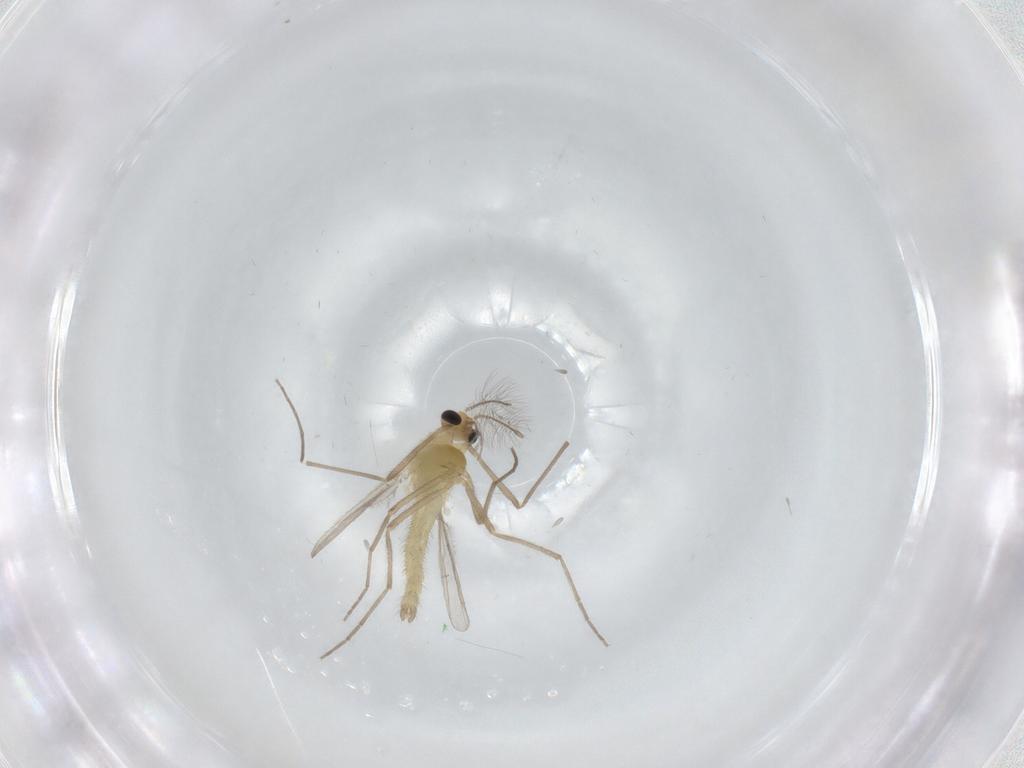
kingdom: Animalia
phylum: Arthropoda
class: Insecta
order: Diptera
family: Chironomidae
